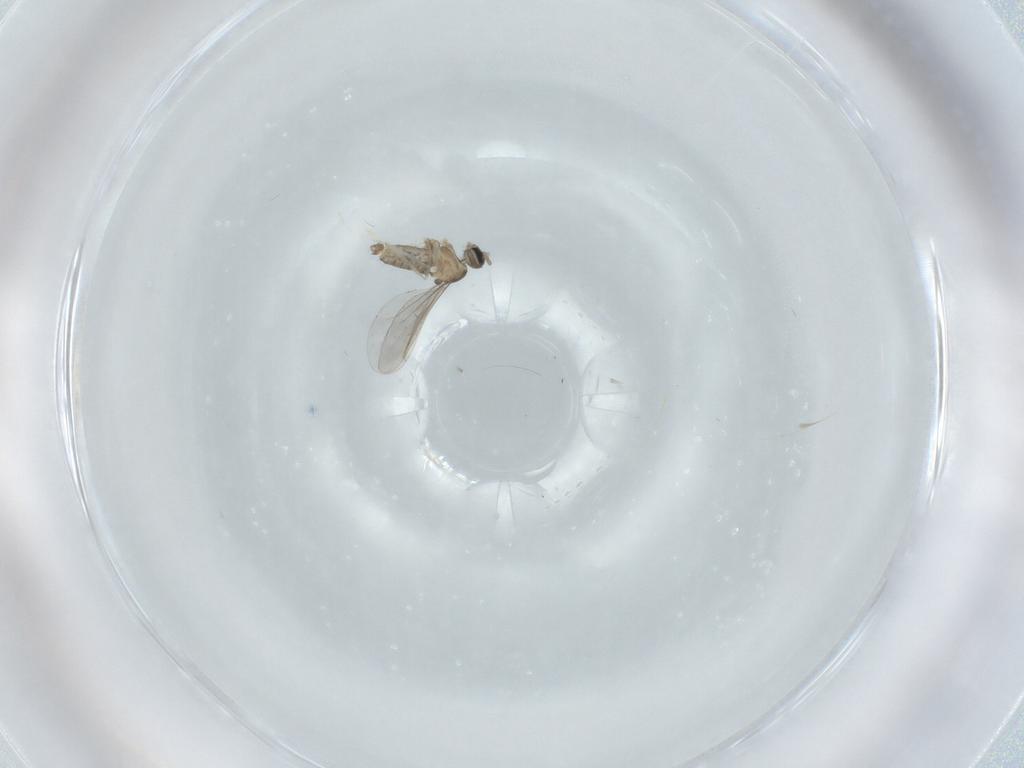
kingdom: Animalia
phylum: Arthropoda
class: Insecta
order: Diptera
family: Cecidomyiidae
